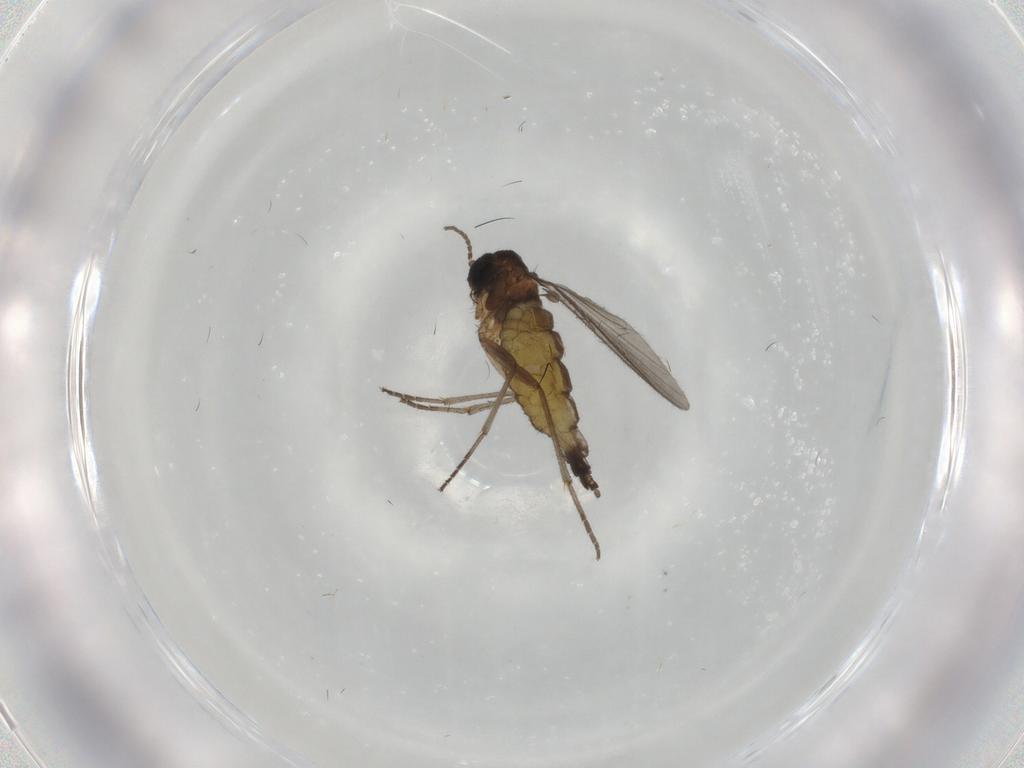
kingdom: Animalia
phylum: Arthropoda
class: Insecta
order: Diptera
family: Sciaridae
